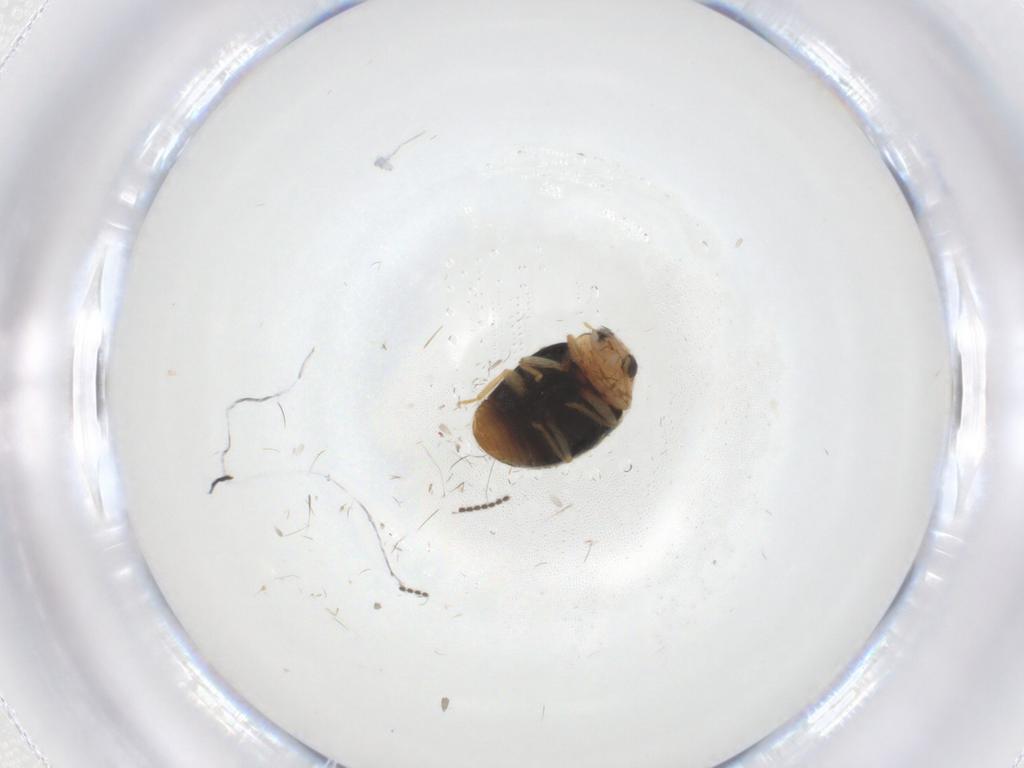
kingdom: Animalia
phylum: Arthropoda
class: Insecta
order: Coleoptera
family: Coccinellidae
